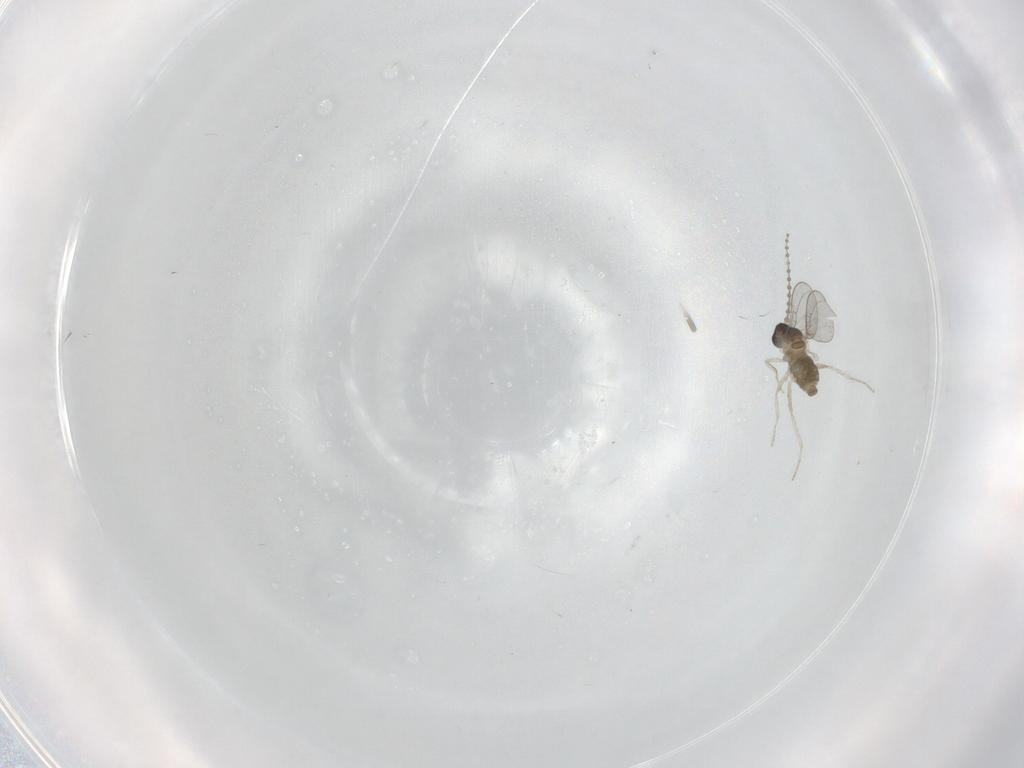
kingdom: Animalia
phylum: Arthropoda
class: Insecta
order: Diptera
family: Cecidomyiidae
